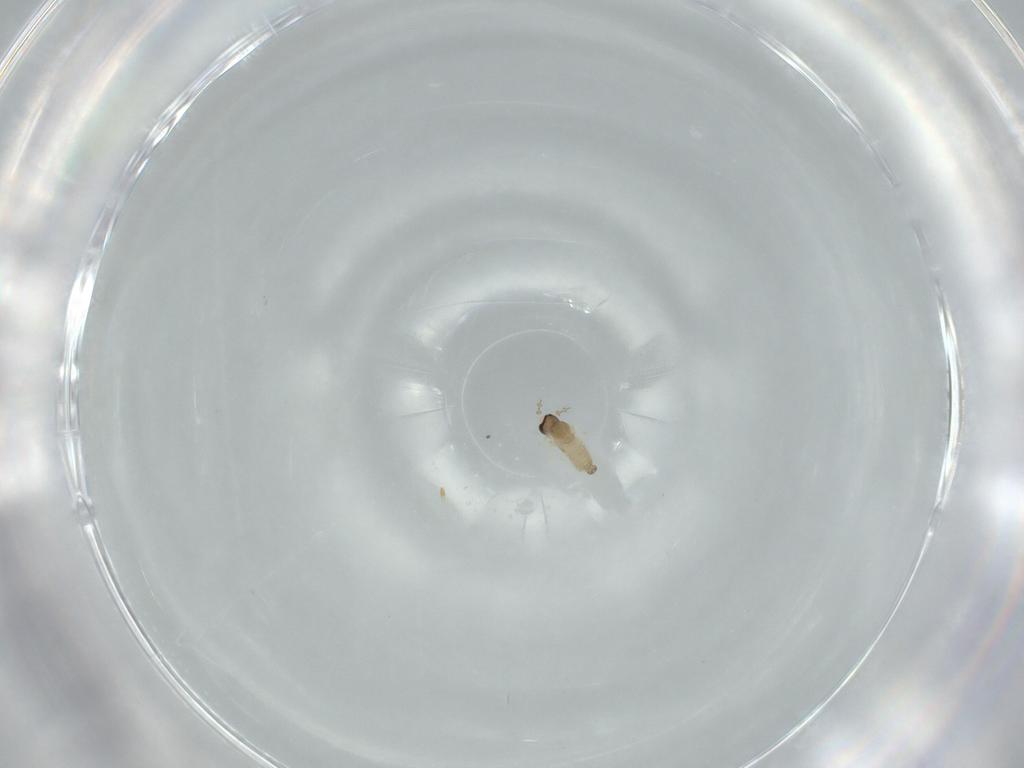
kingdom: Animalia
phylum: Arthropoda
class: Insecta
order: Diptera
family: Cecidomyiidae
